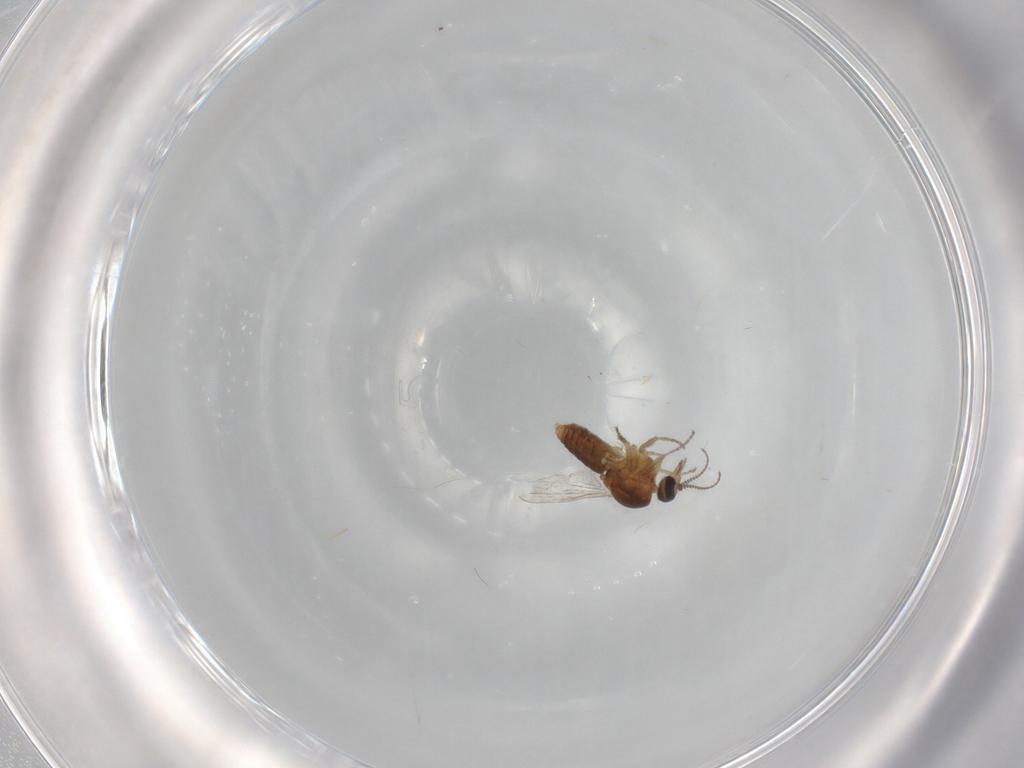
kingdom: Animalia
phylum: Arthropoda
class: Insecta
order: Diptera
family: Ceratopogonidae
